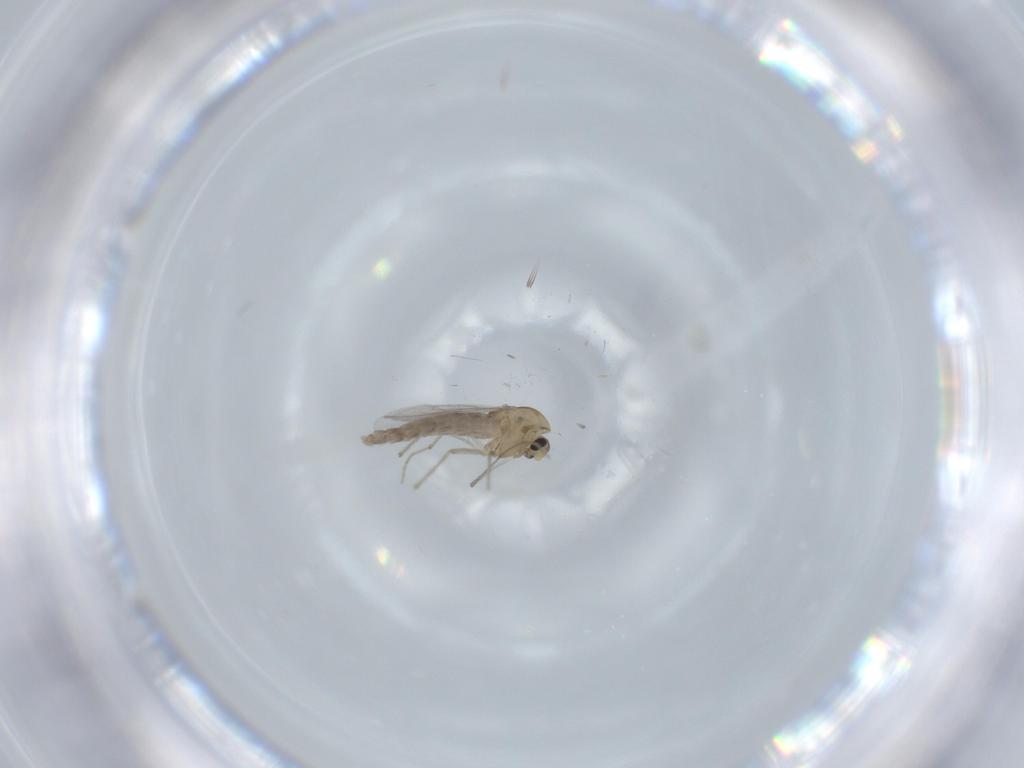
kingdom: Animalia
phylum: Arthropoda
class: Insecta
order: Diptera
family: Chironomidae
